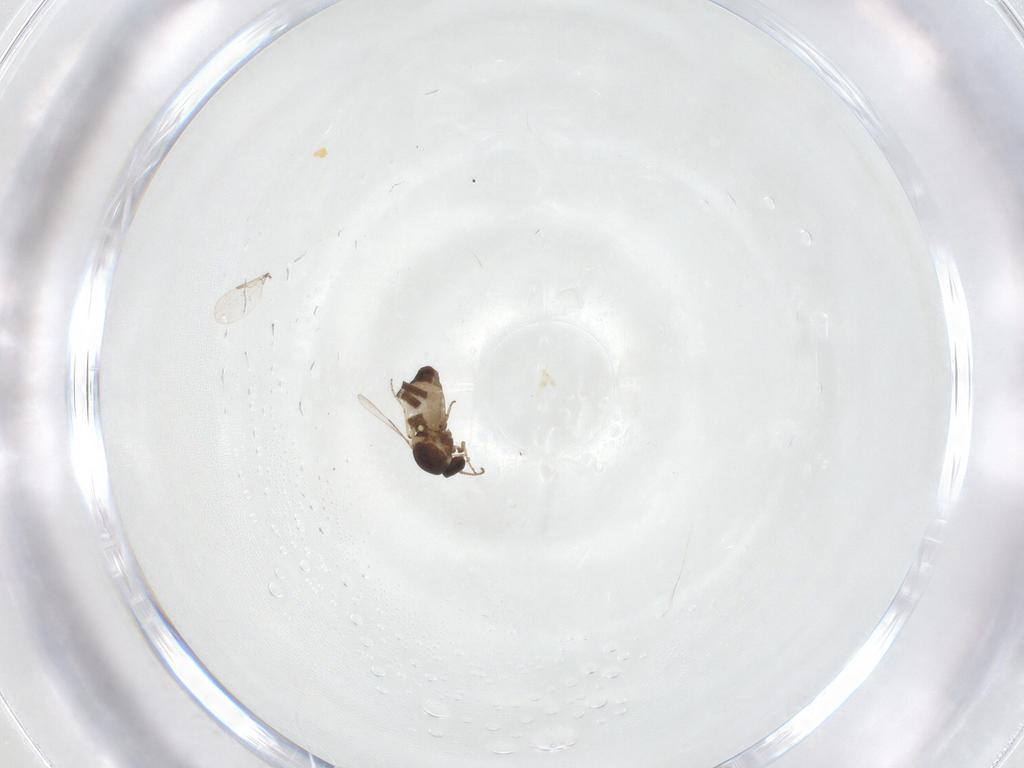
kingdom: Animalia
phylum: Arthropoda
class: Insecta
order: Diptera
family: Ceratopogonidae
